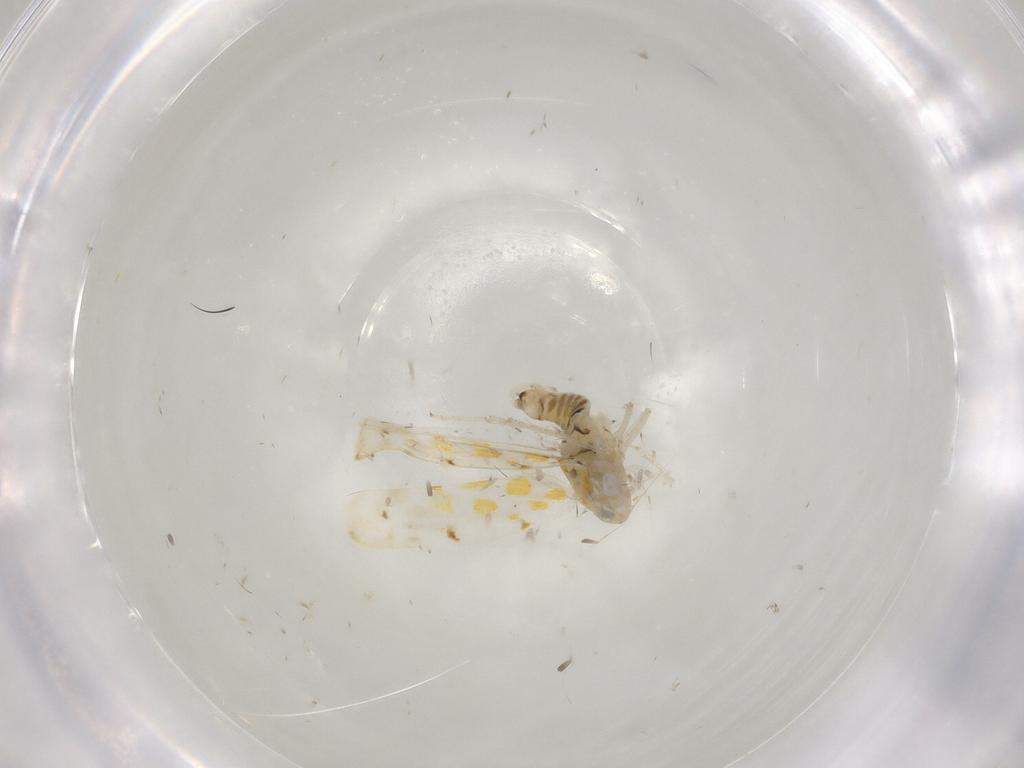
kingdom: Animalia
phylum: Arthropoda
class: Insecta
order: Hemiptera
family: Cicadellidae
